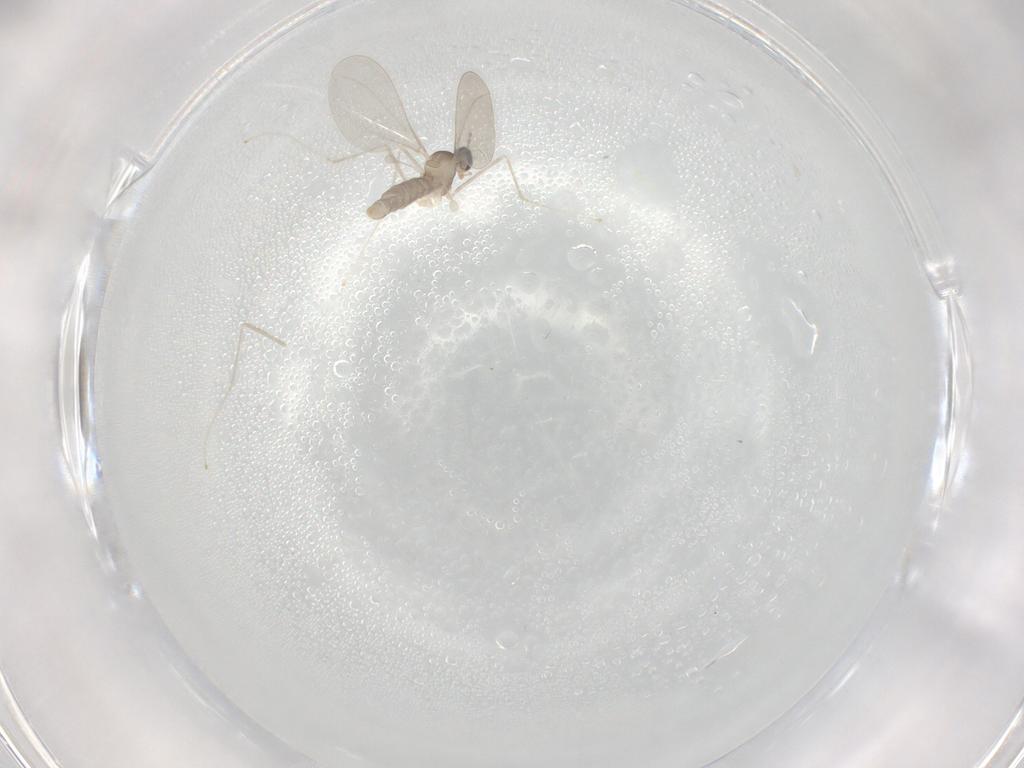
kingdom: Animalia
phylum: Arthropoda
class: Insecta
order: Diptera
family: Cecidomyiidae
